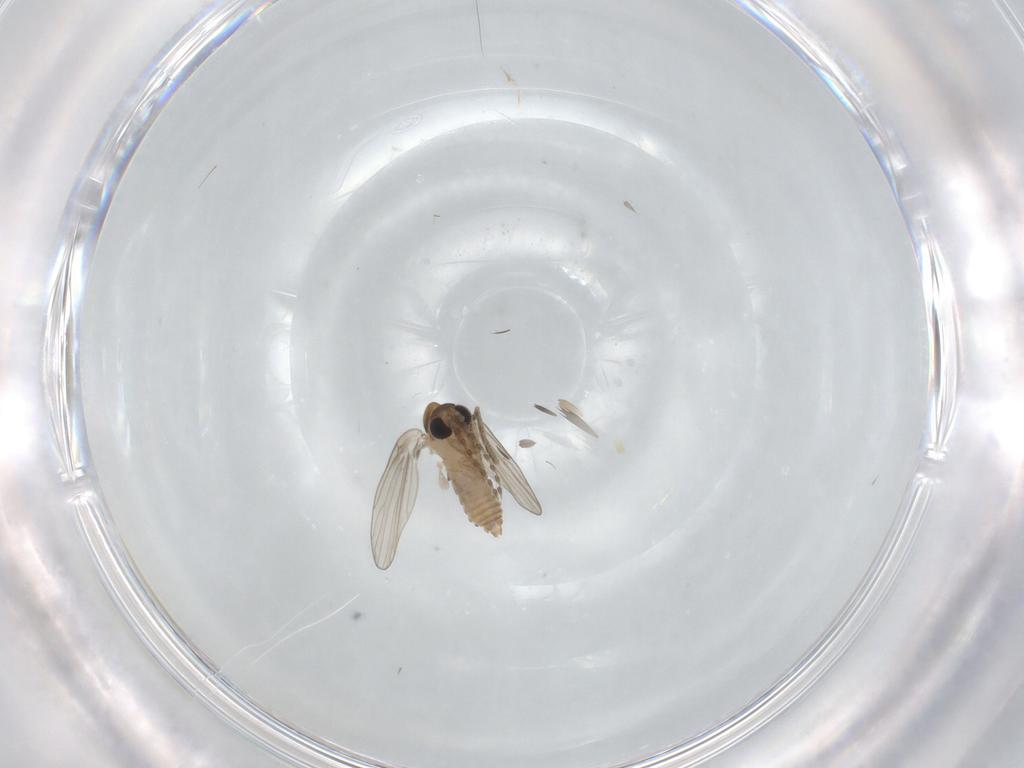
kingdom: Animalia
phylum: Arthropoda
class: Insecta
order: Diptera
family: Psychodidae
